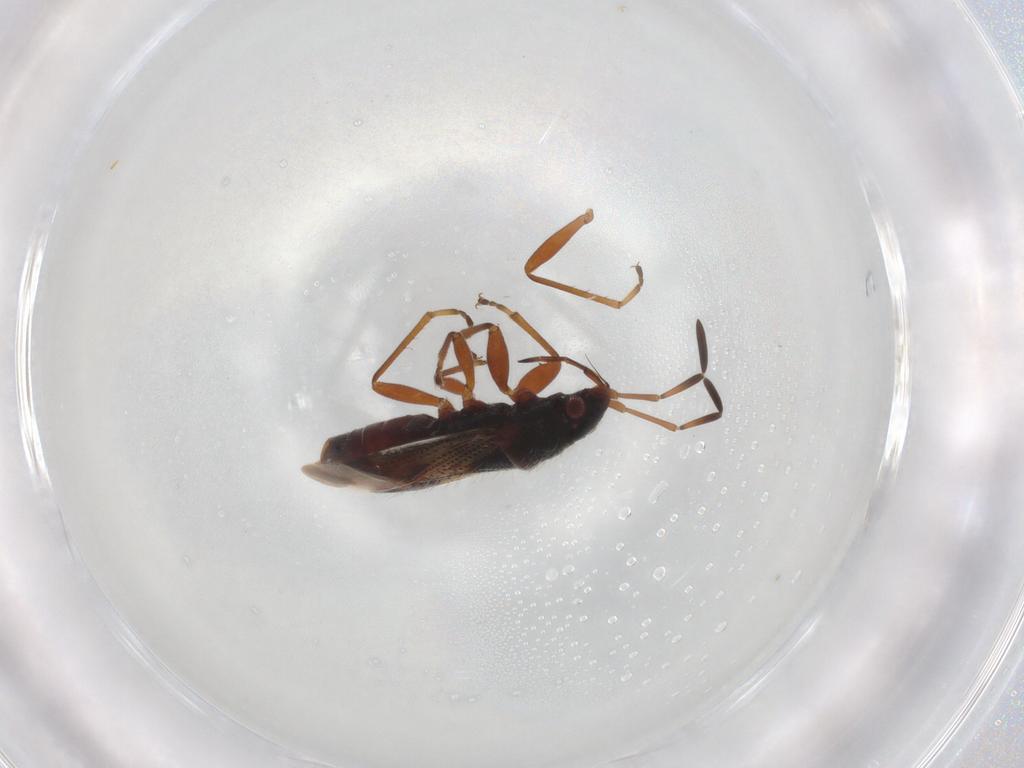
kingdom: Animalia
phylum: Arthropoda
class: Insecta
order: Hemiptera
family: Rhyparochromidae
